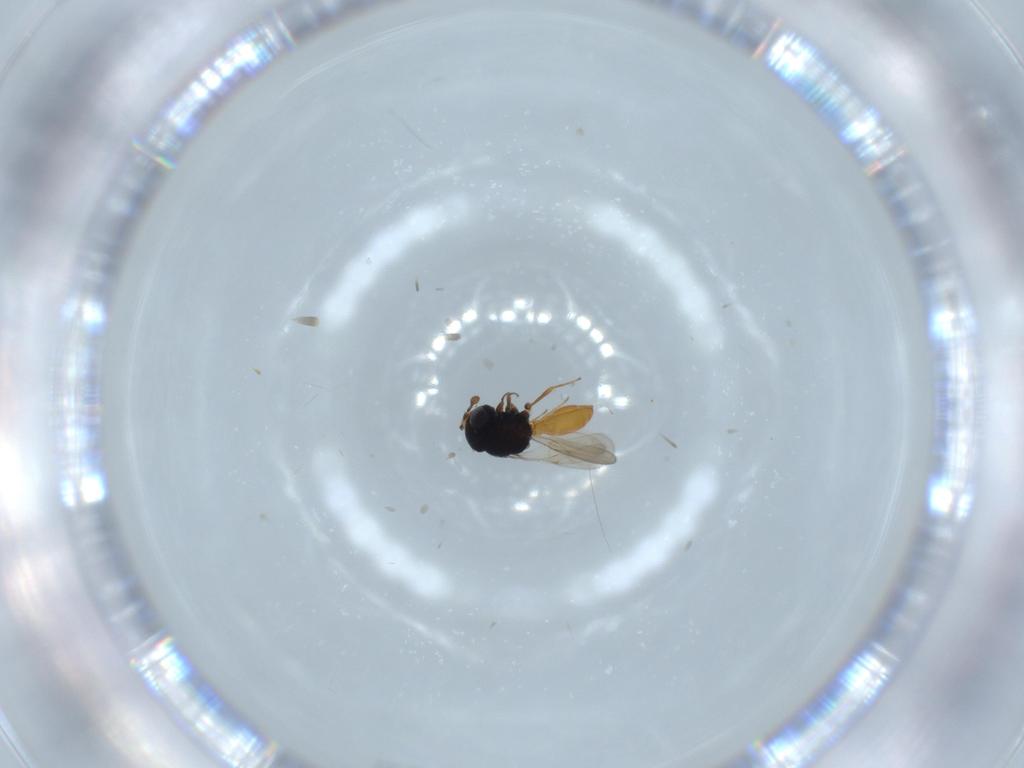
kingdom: Animalia
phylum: Arthropoda
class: Insecta
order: Hymenoptera
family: Scelionidae
